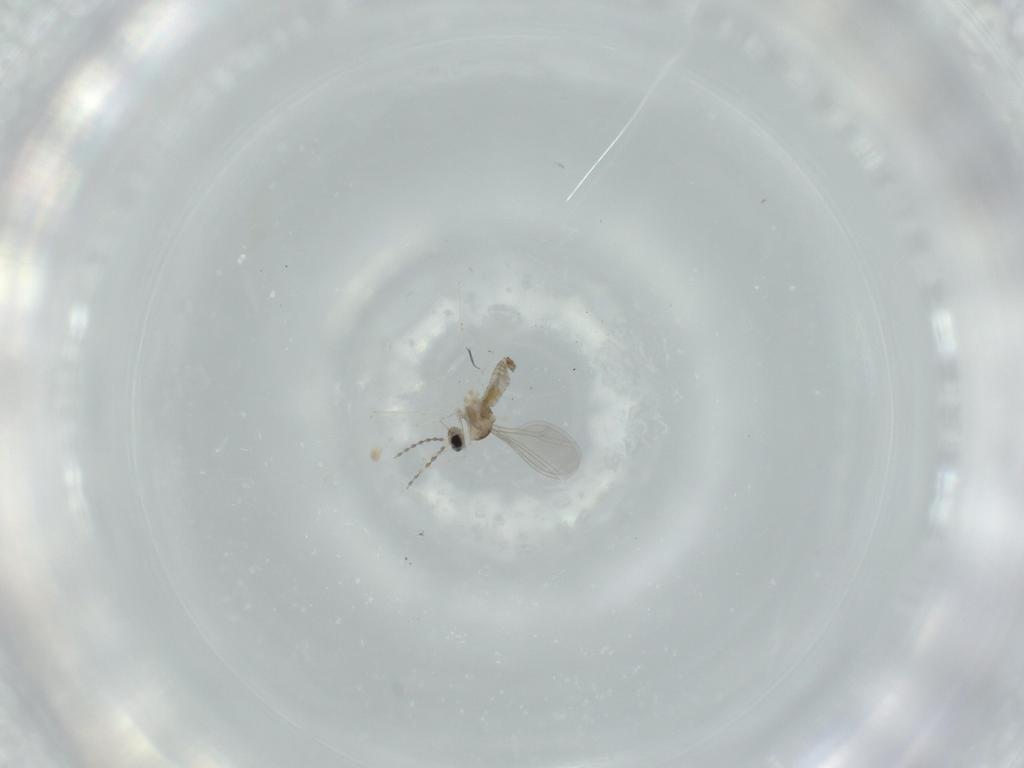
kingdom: Animalia
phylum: Arthropoda
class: Insecta
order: Diptera
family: Cecidomyiidae
